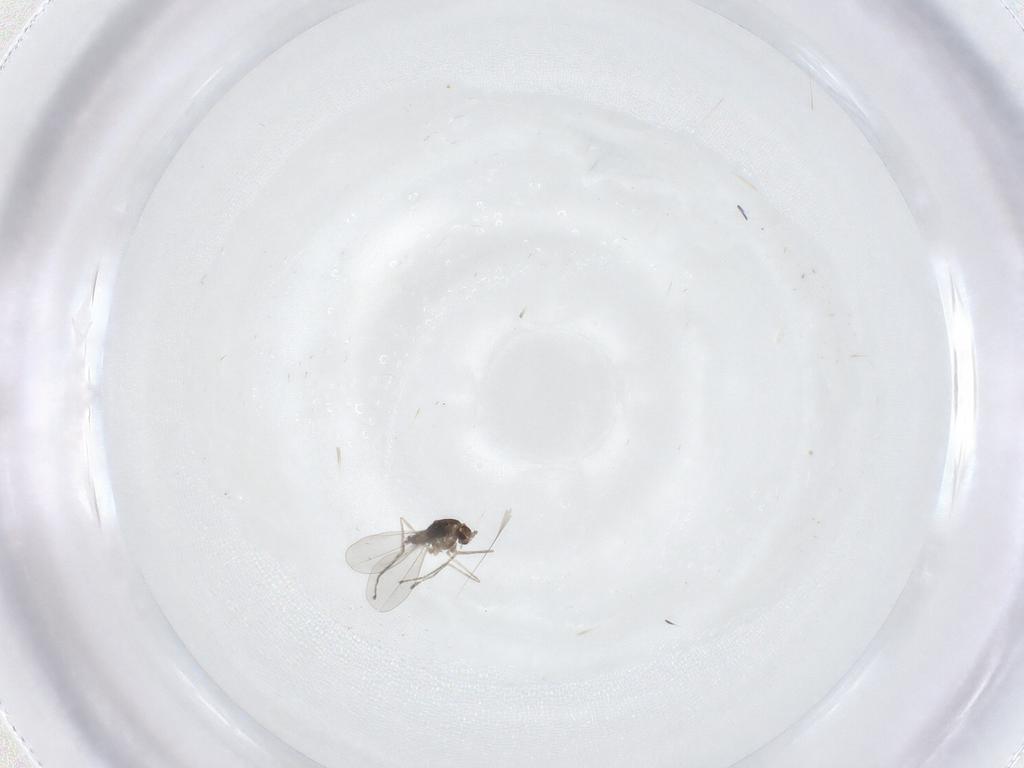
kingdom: Animalia
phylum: Arthropoda
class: Insecta
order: Diptera
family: Cecidomyiidae
